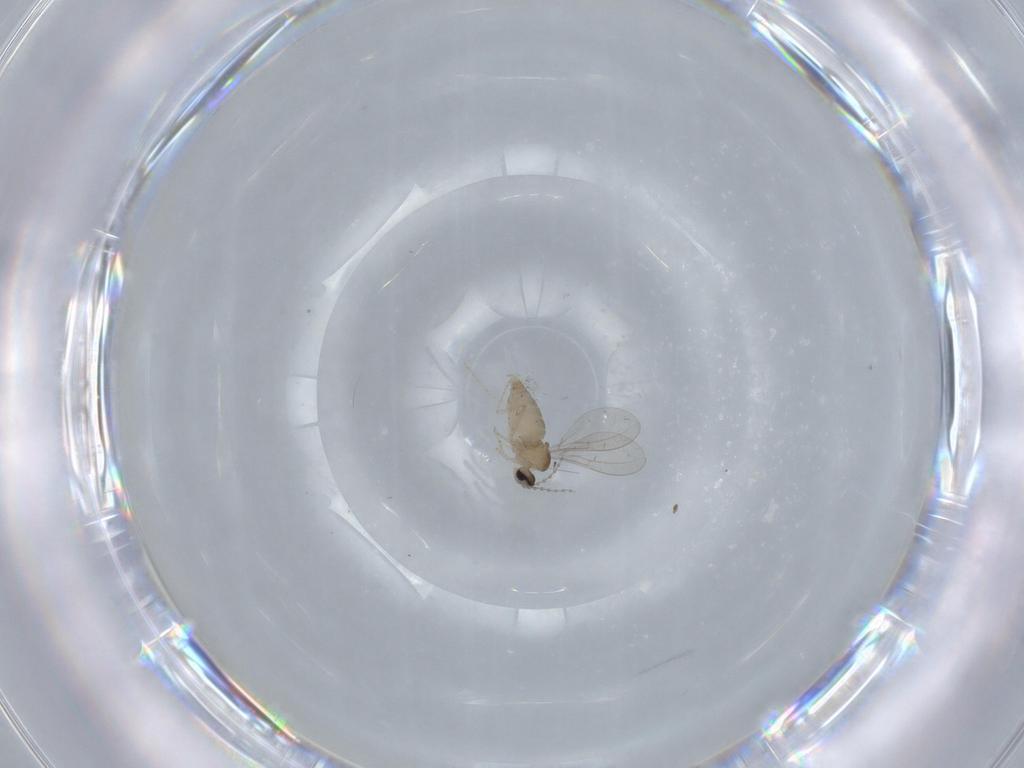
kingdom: Animalia
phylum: Arthropoda
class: Insecta
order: Diptera
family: Cecidomyiidae
